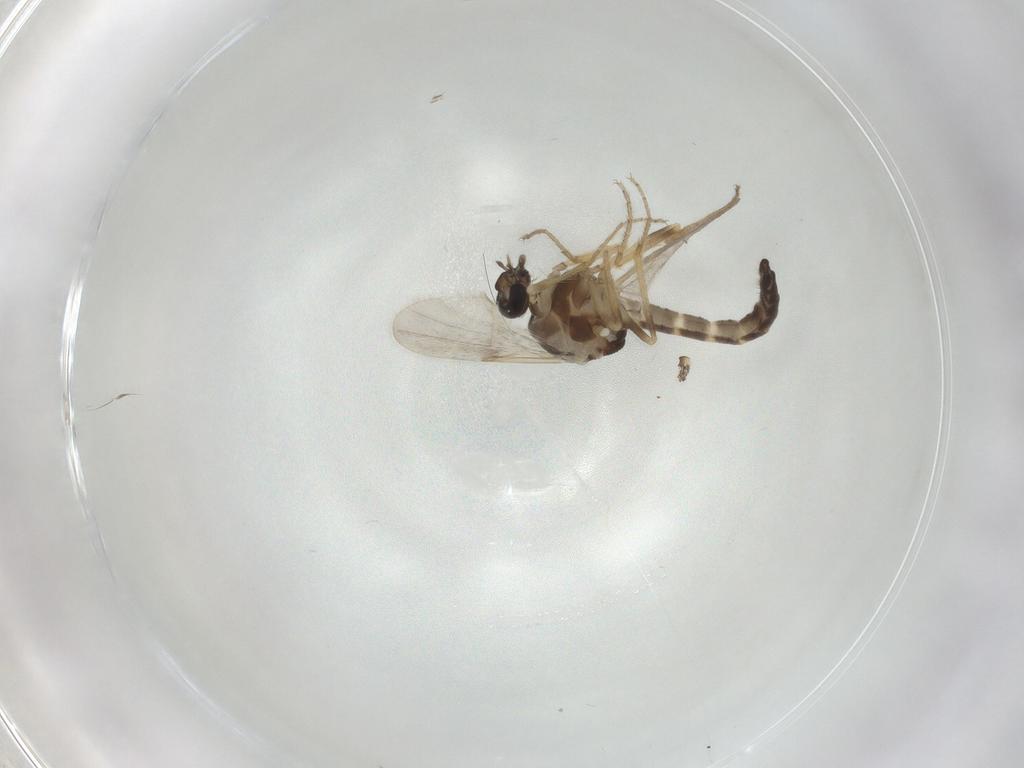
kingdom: Animalia
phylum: Arthropoda
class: Insecta
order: Diptera
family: Ceratopogonidae
